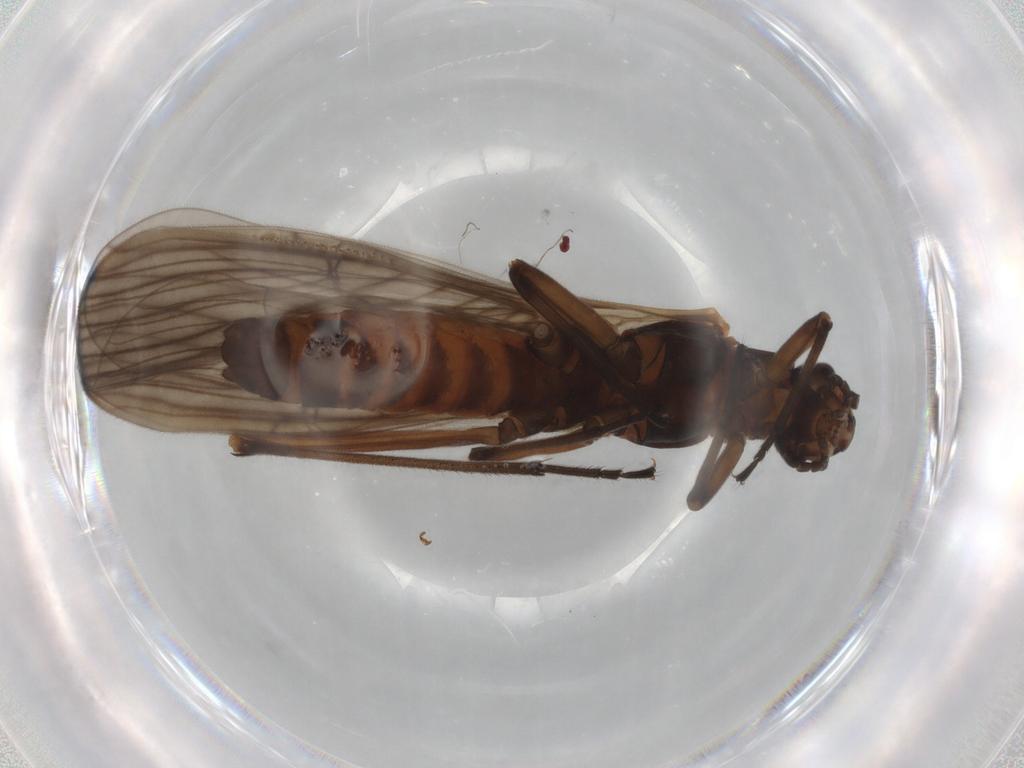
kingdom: Animalia
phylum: Arthropoda
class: Insecta
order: Plecoptera
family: Notonemouridae
